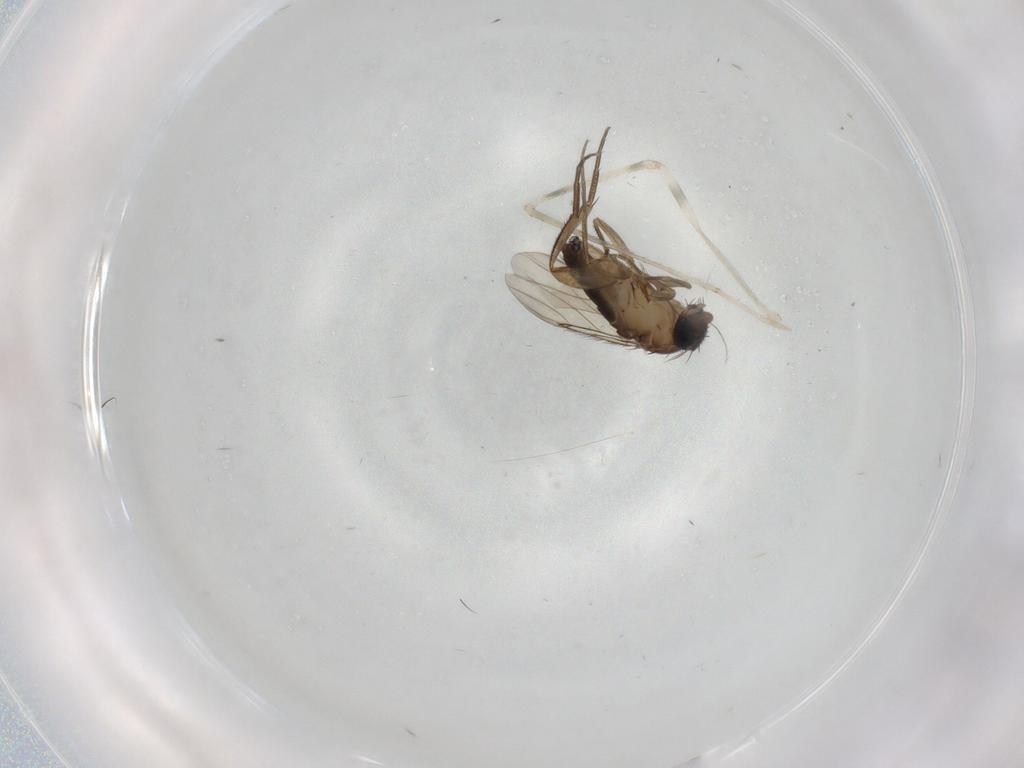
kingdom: Animalia
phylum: Arthropoda
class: Insecta
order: Diptera
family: Phoridae
